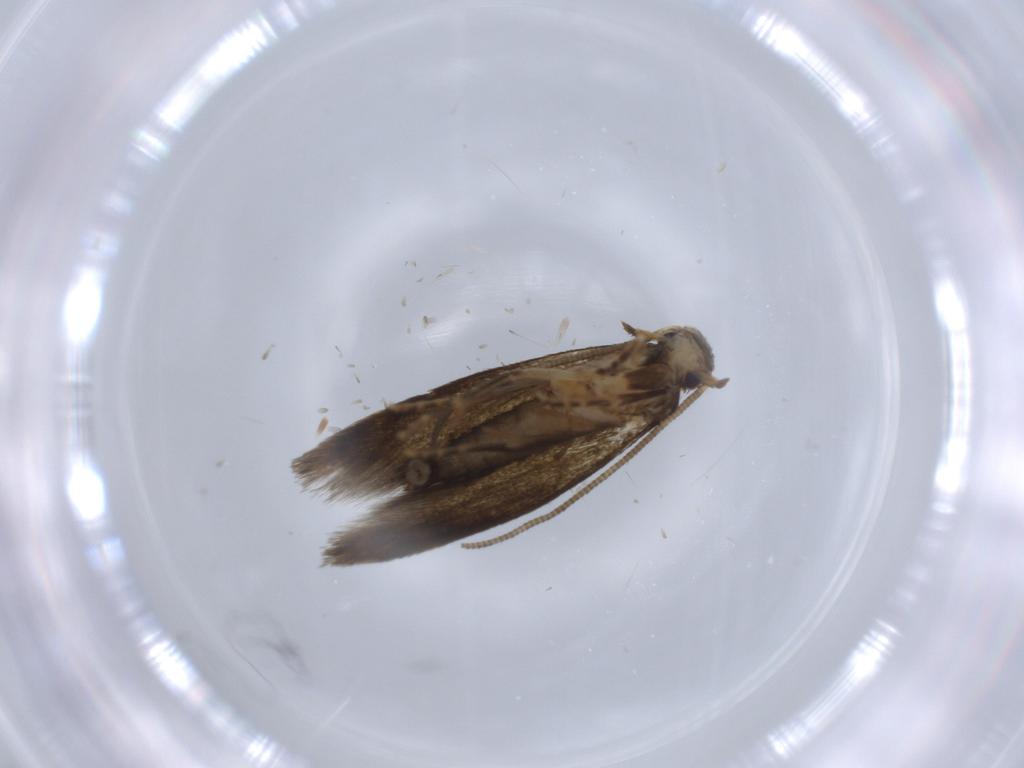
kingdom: Animalia
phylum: Arthropoda
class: Insecta
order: Lepidoptera
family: Tineidae
